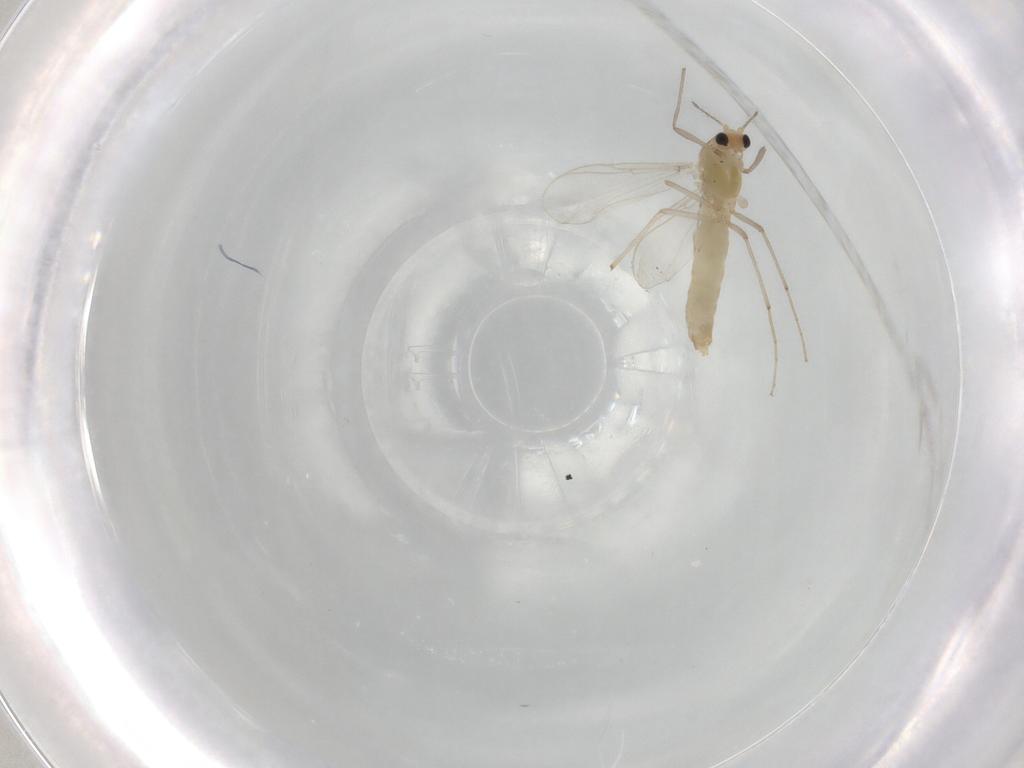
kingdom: Animalia
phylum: Arthropoda
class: Insecta
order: Diptera
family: Chironomidae
